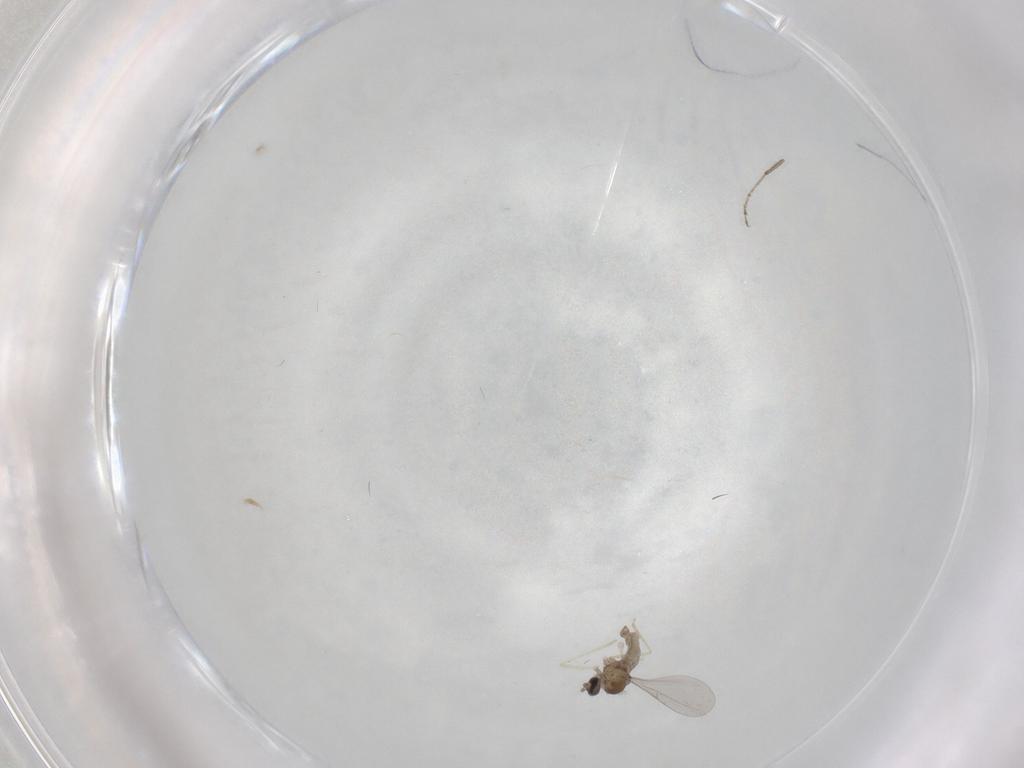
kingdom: Animalia
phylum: Arthropoda
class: Insecta
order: Diptera
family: Ceratopogonidae
